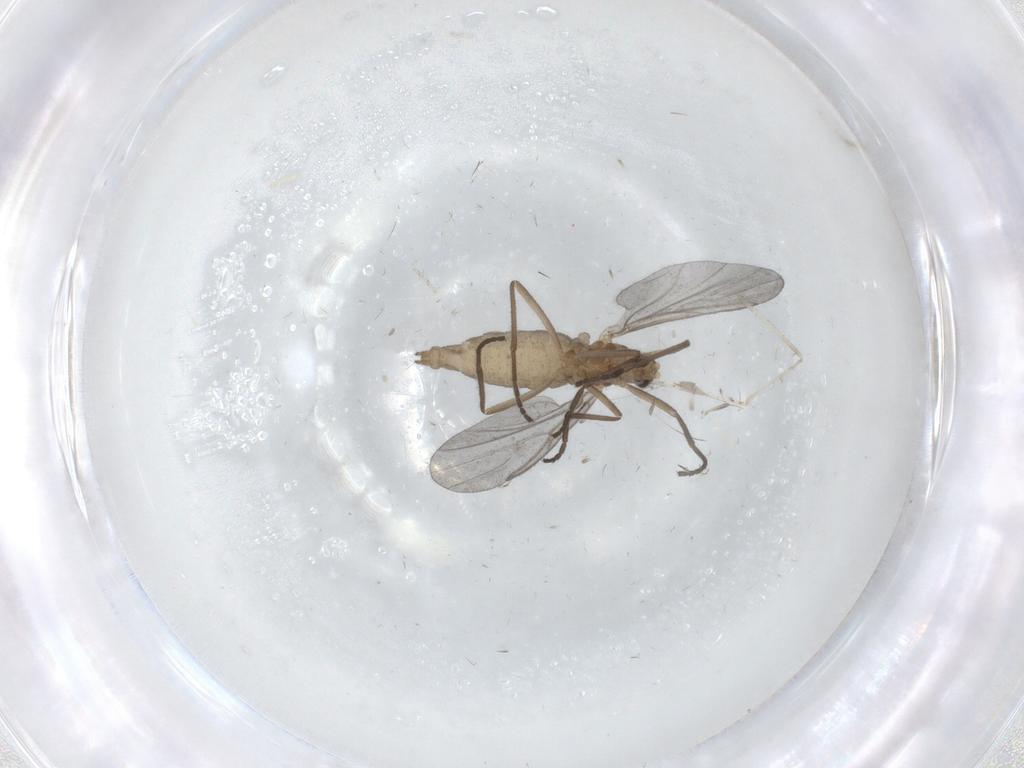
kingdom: Animalia
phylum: Arthropoda
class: Insecta
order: Diptera
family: Cecidomyiidae
